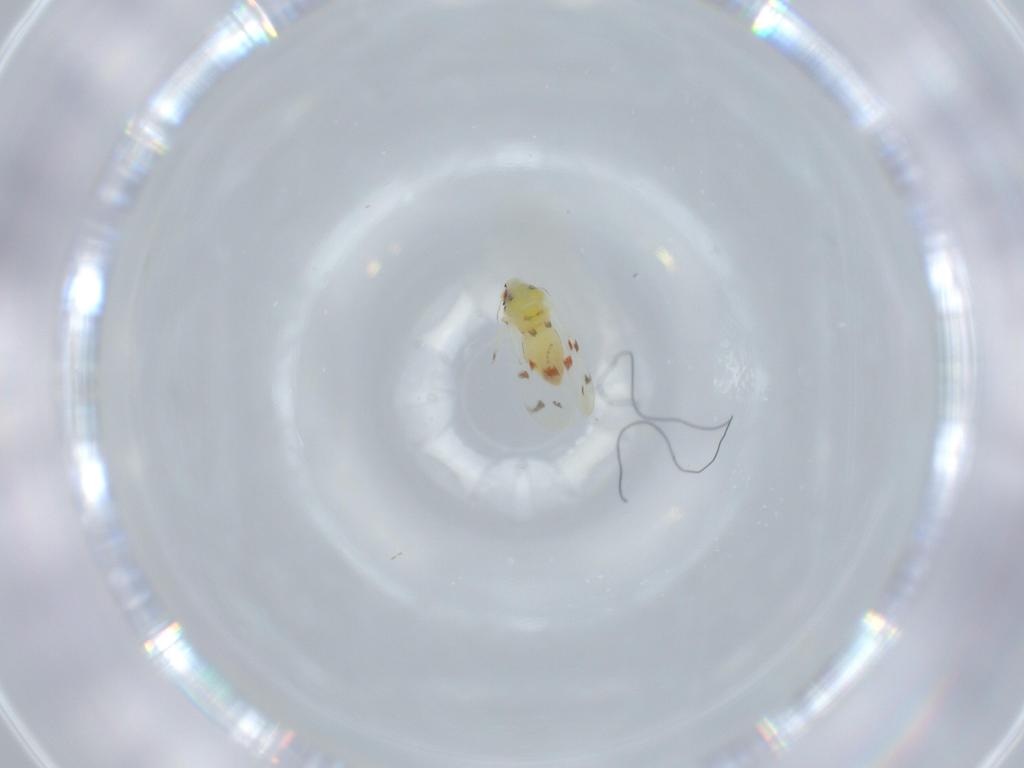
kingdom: Animalia
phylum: Arthropoda
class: Insecta
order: Hemiptera
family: Aleyrodidae
